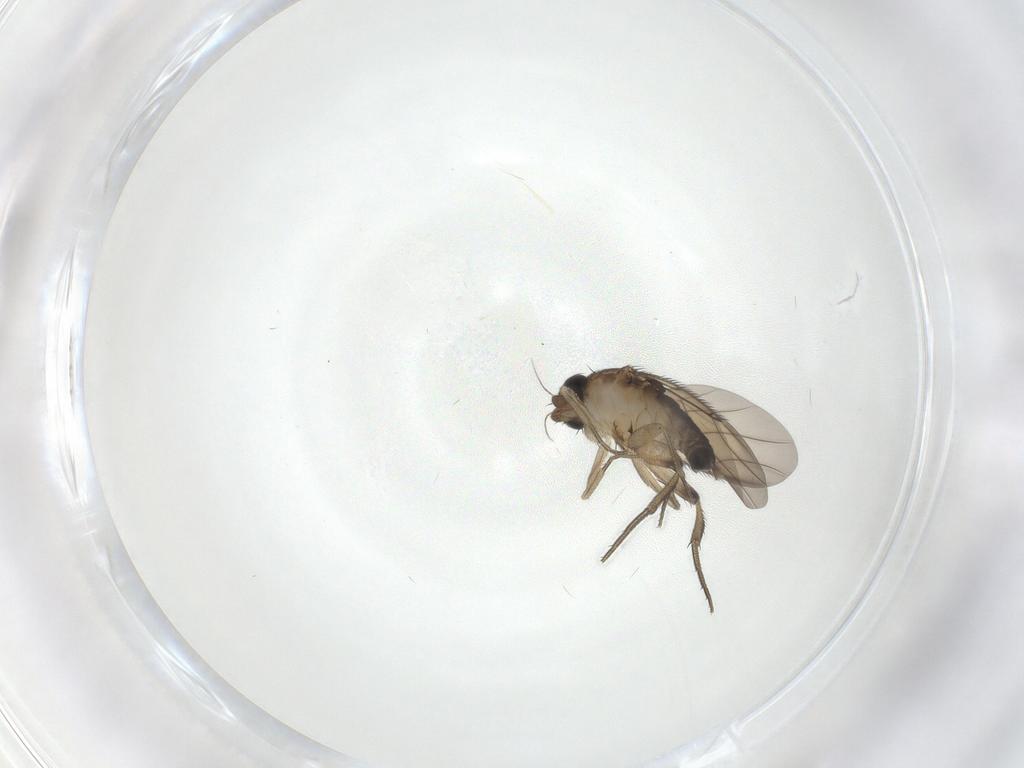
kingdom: Animalia
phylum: Arthropoda
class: Insecta
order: Diptera
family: Cecidomyiidae
